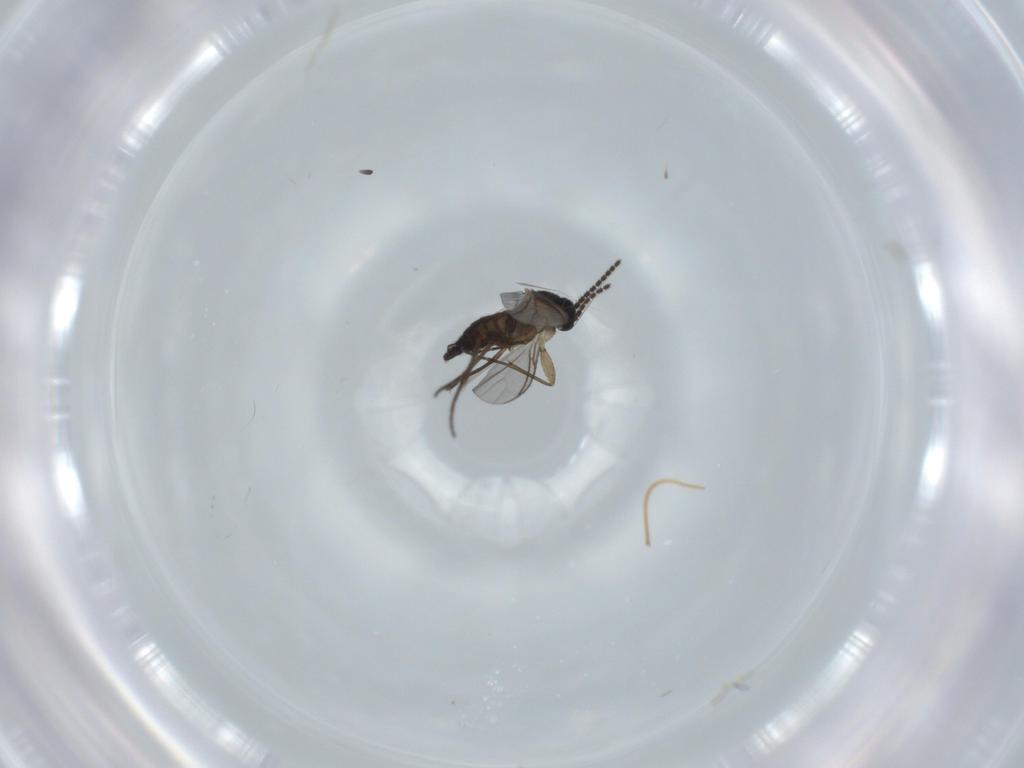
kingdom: Animalia
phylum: Arthropoda
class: Insecta
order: Diptera
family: Sciaridae
